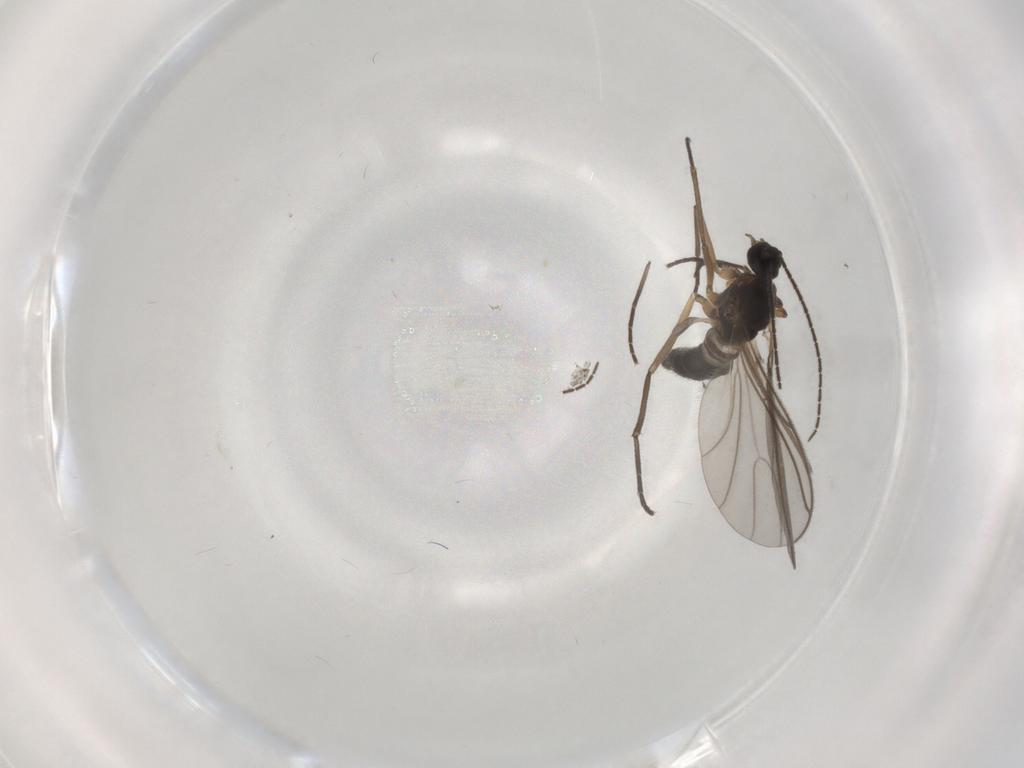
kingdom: Animalia
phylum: Arthropoda
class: Insecta
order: Diptera
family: Sciaridae
